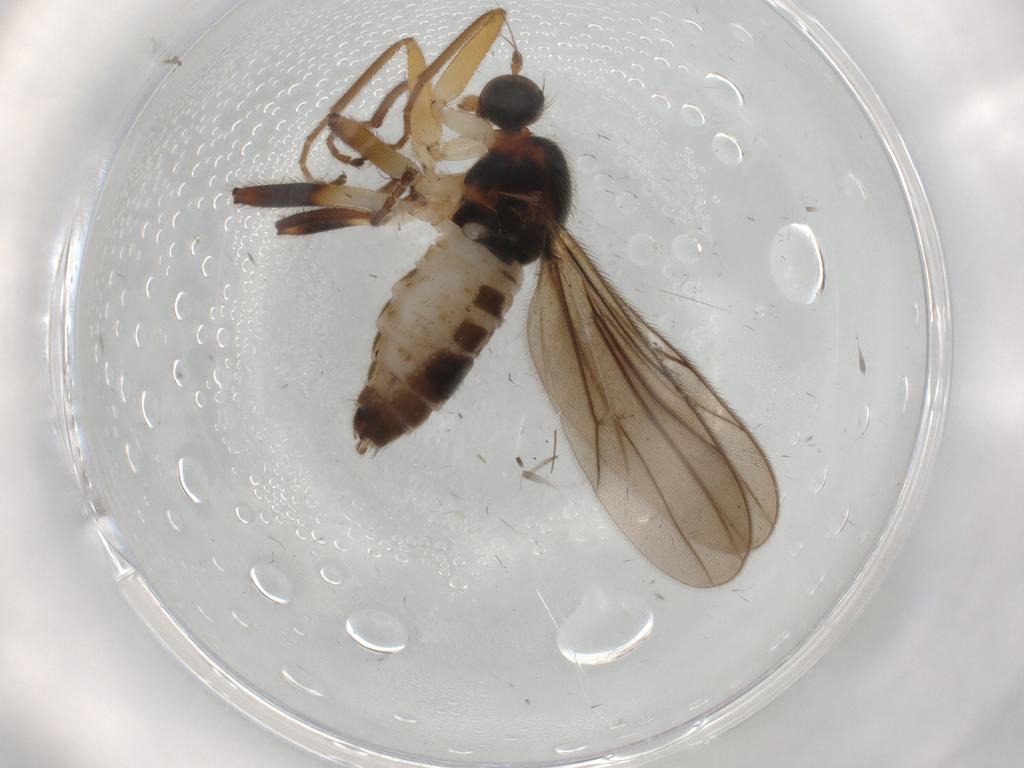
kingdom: Animalia
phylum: Arthropoda
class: Insecta
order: Diptera
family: Hybotidae
